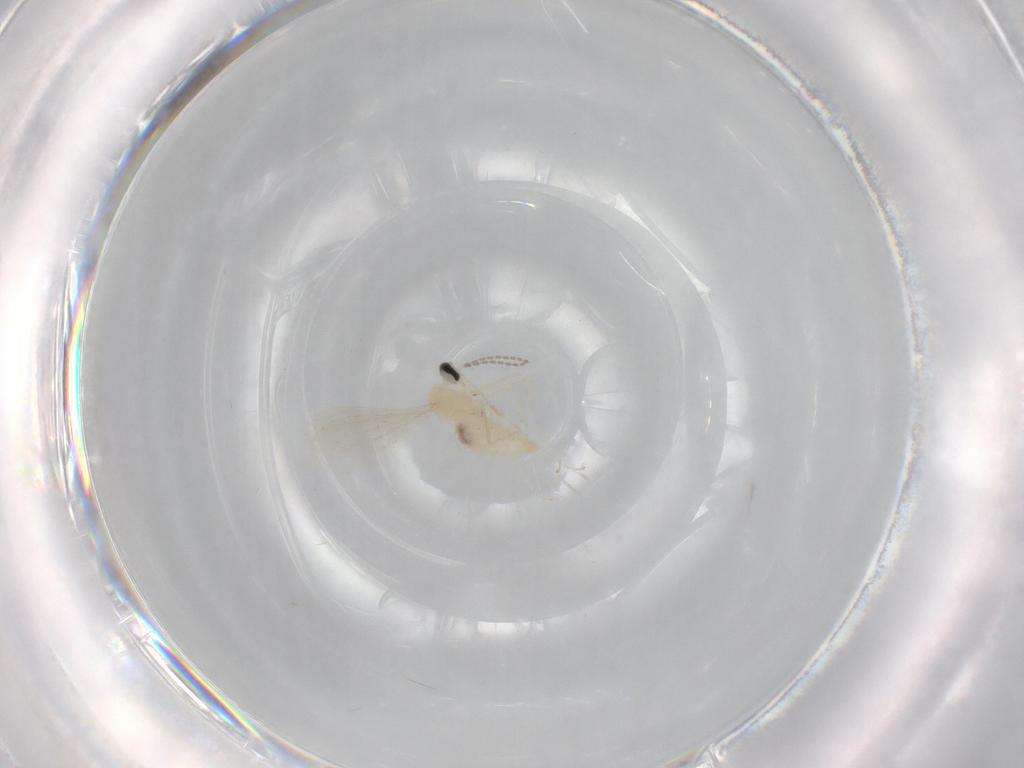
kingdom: Animalia
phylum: Arthropoda
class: Insecta
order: Diptera
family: Cecidomyiidae
